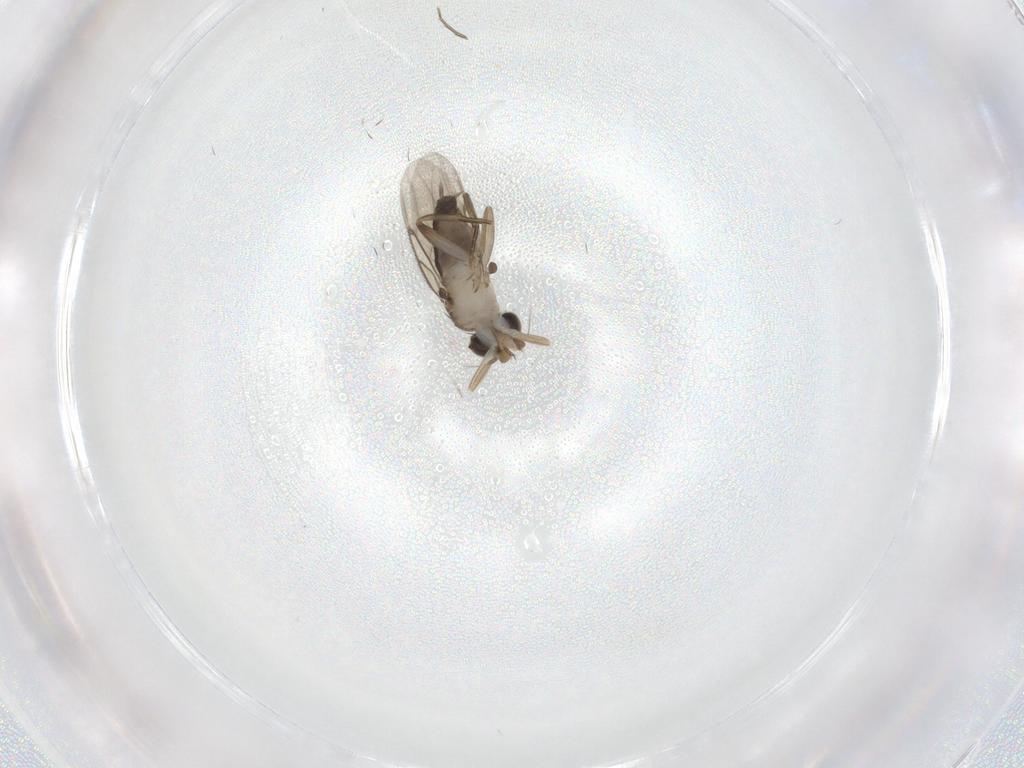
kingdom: Animalia
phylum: Arthropoda
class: Insecta
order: Diptera
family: Phoridae
